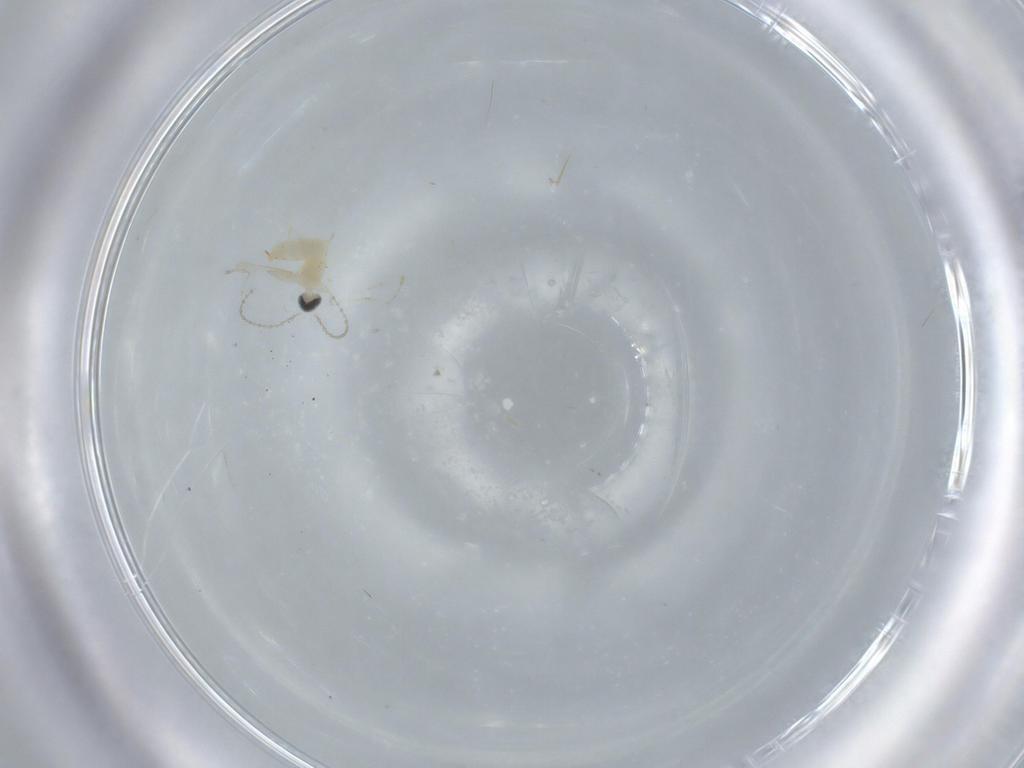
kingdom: Animalia
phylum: Arthropoda
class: Insecta
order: Diptera
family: Cecidomyiidae
